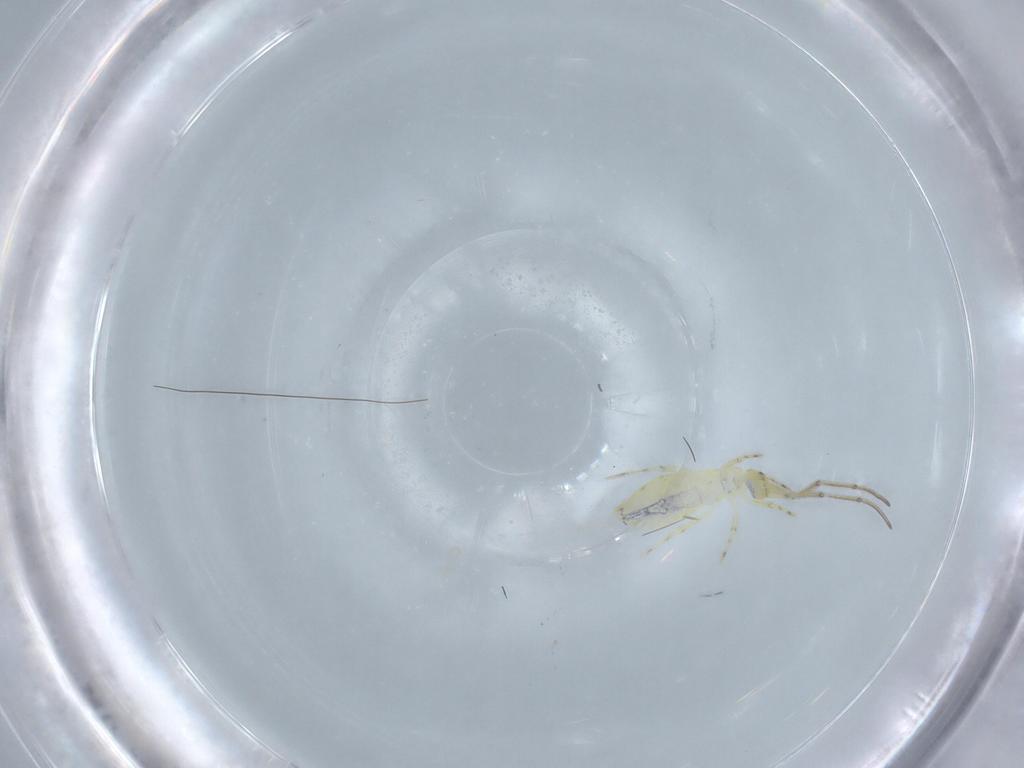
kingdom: Animalia
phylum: Arthropoda
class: Collembola
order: Entomobryomorpha
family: Paronellidae
